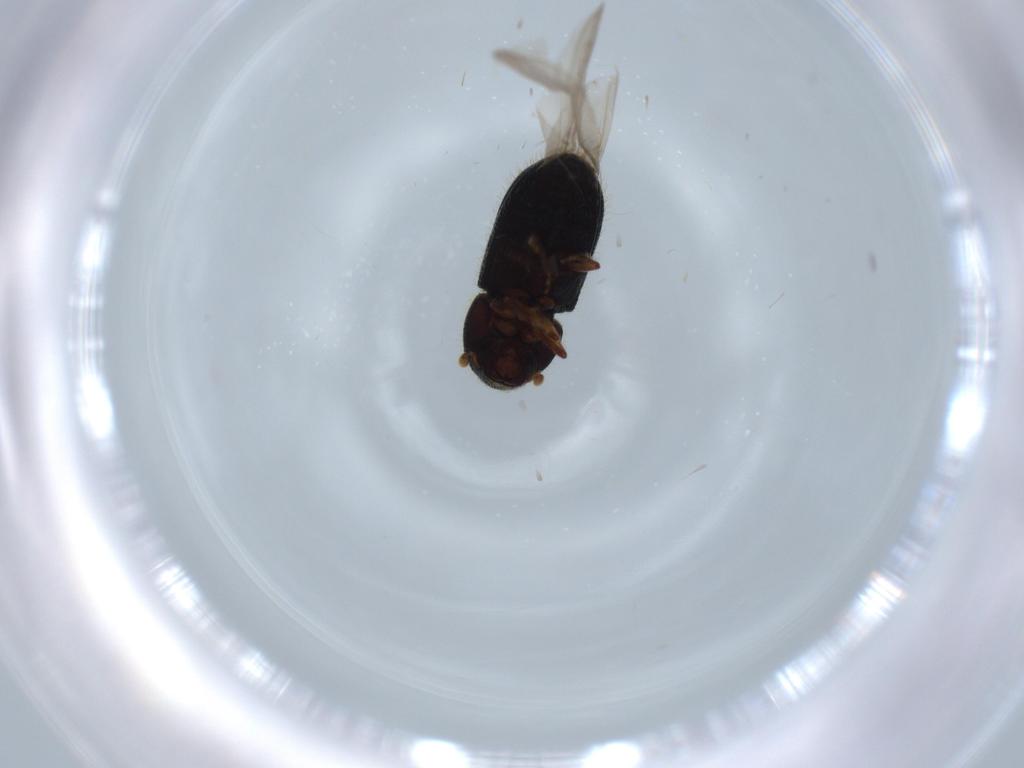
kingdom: Animalia
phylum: Arthropoda
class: Insecta
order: Coleoptera
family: Curculionidae
